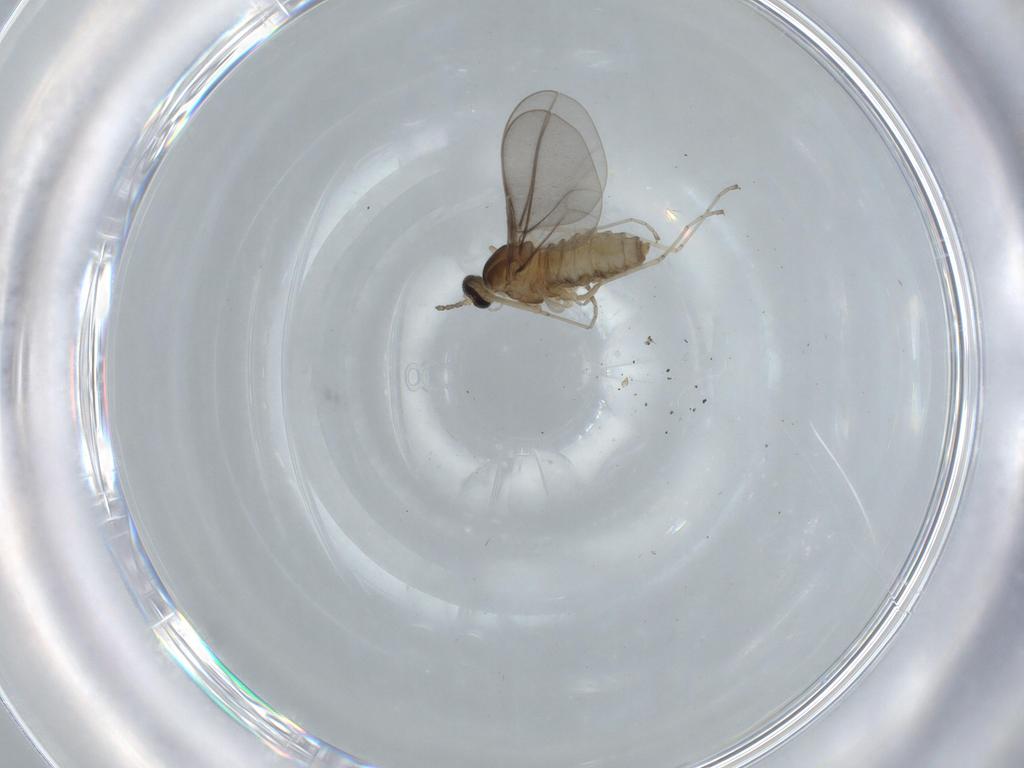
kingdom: Animalia
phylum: Arthropoda
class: Insecta
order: Diptera
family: Cecidomyiidae
